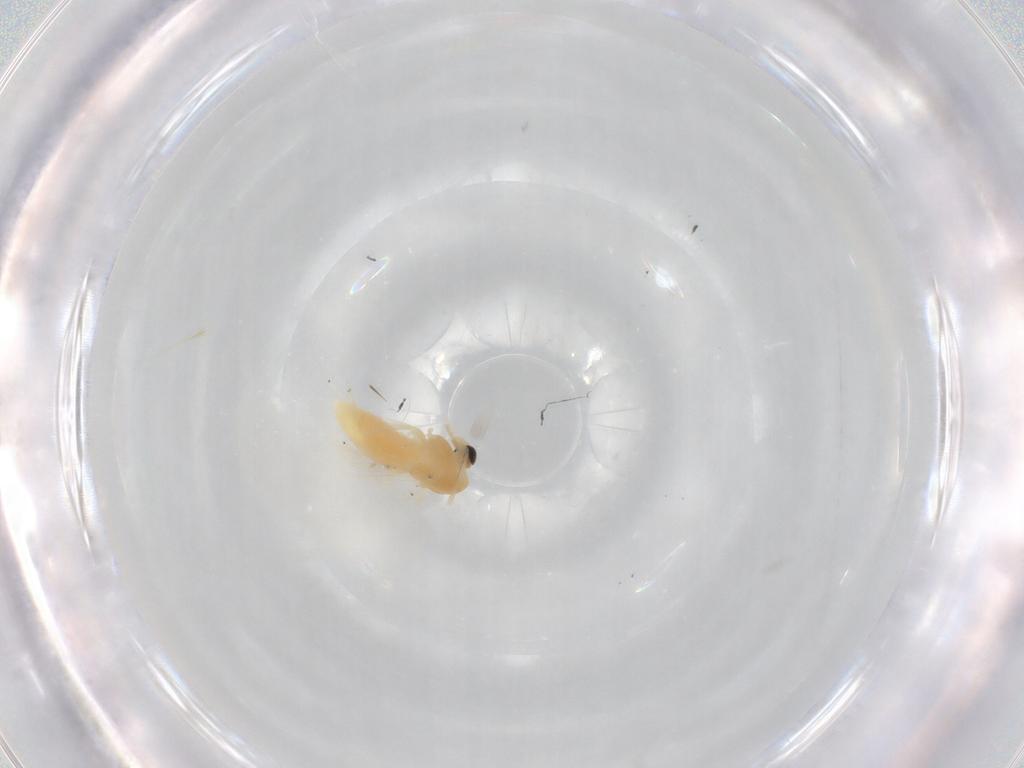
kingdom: Animalia
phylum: Arthropoda
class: Insecta
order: Diptera
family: Chironomidae
